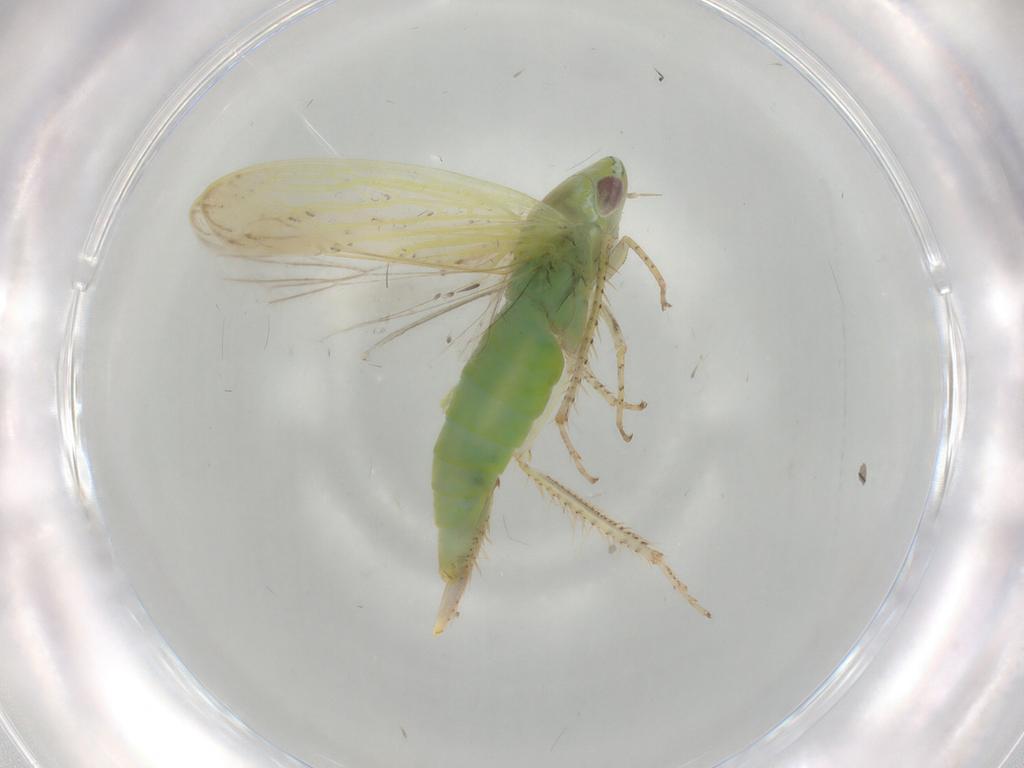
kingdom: Animalia
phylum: Arthropoda
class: Insecta
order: Hemiptera
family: Cicadellidae
